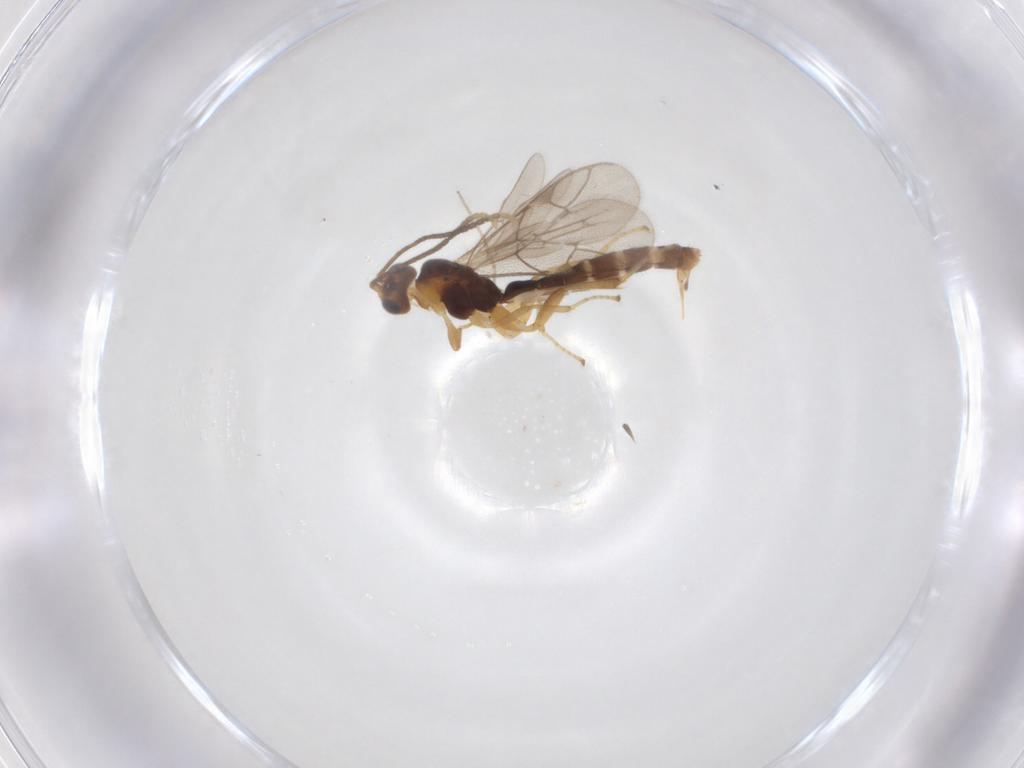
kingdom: Animalia
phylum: Arthropoda
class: Insecta
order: Hymenoptera
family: Ichneumonidae
